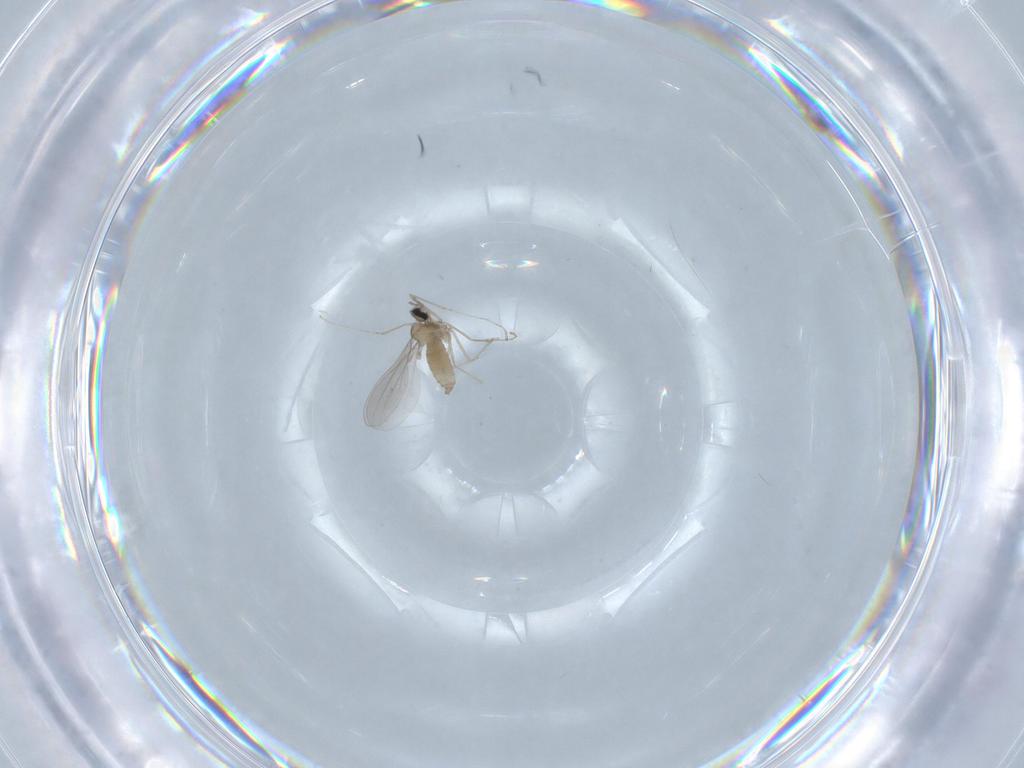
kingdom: Animalia
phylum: Arthropoda
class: Insecta
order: Diptera
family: Cecidomyiidae
